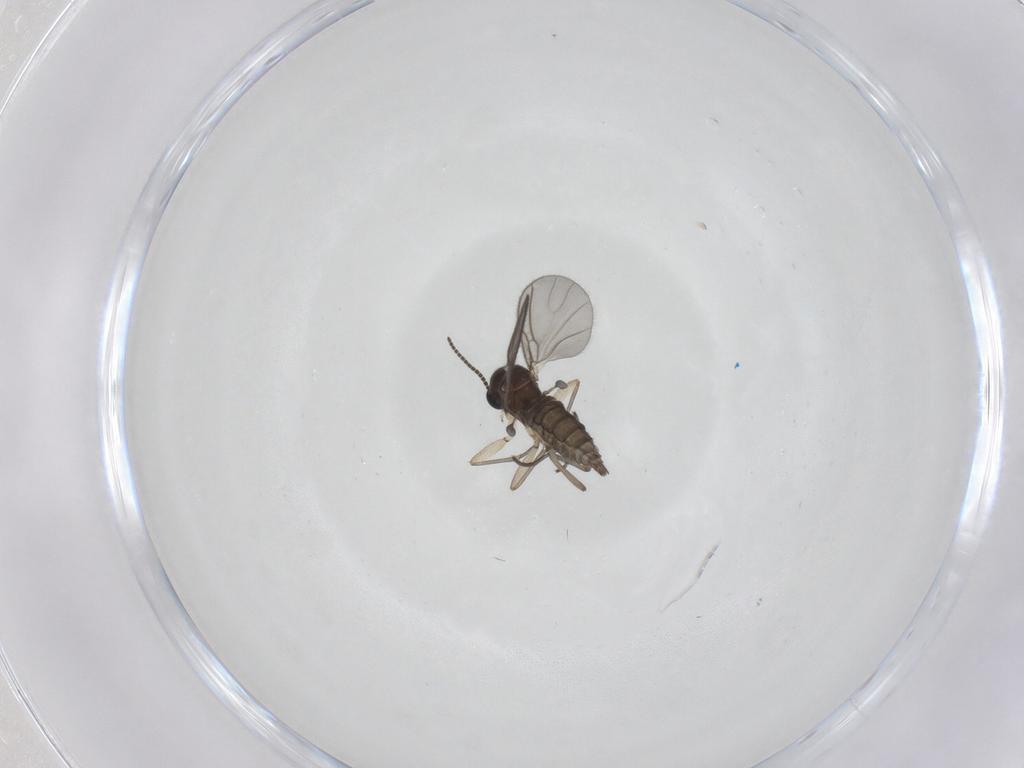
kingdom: Animalia
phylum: Arthropoda
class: Insecta
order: Diptera
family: Sciaridae
